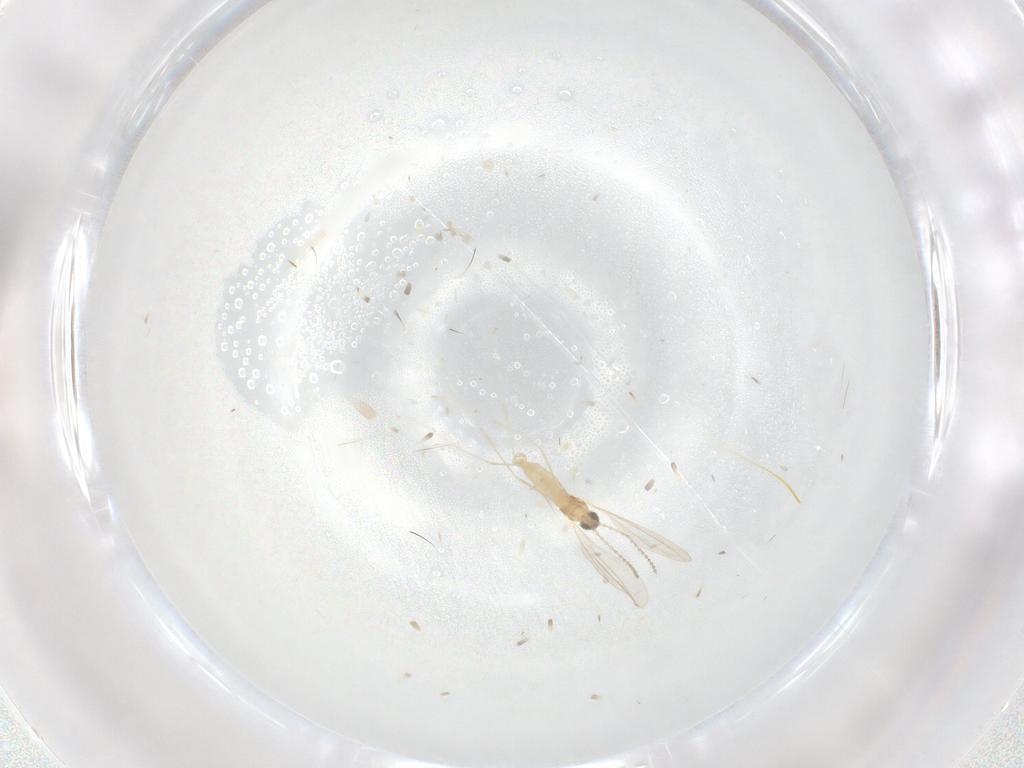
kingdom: Animalia
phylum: Arthropoda
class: Insecta
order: Diptera
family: Cecidomyiidae
